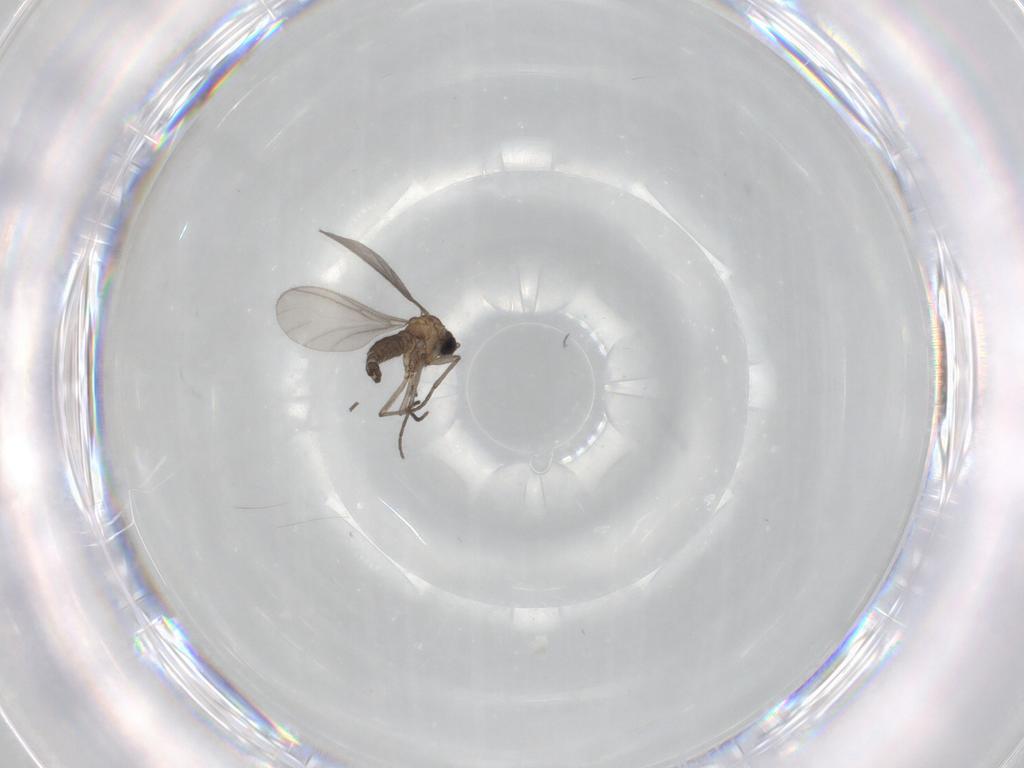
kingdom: Animalia
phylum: Arthropoda
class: Insecta
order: Diptera
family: Sciaridae
